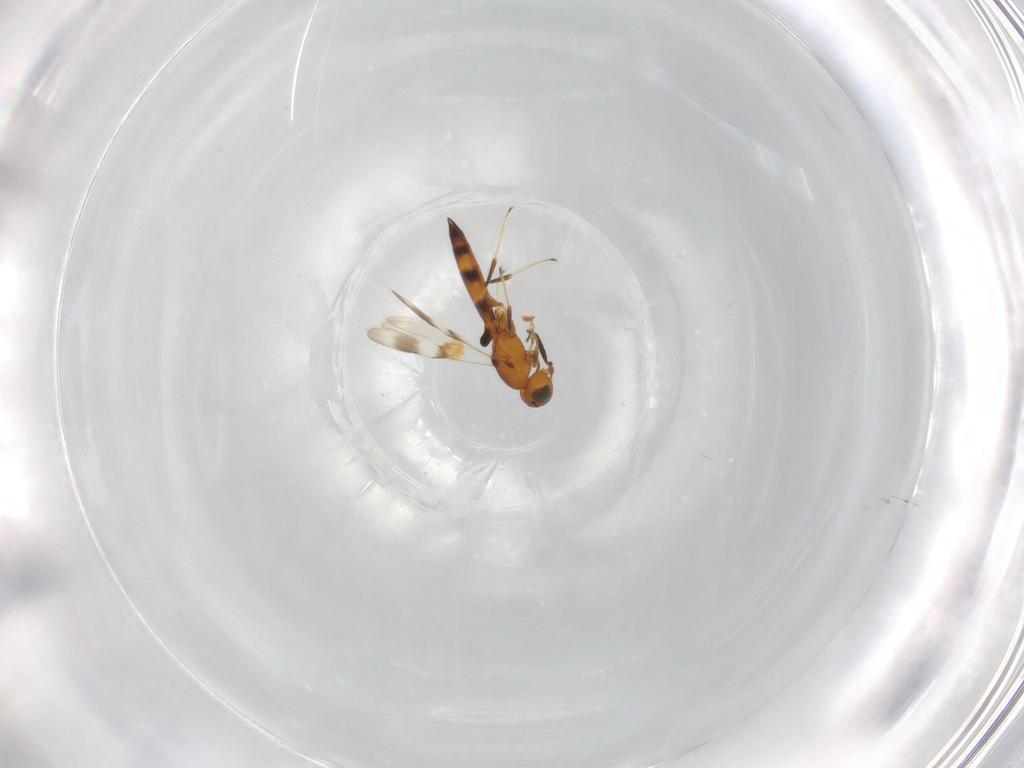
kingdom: Animalia
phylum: Arthropoda
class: Insecta
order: Hymenoptera
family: Scelionidae
